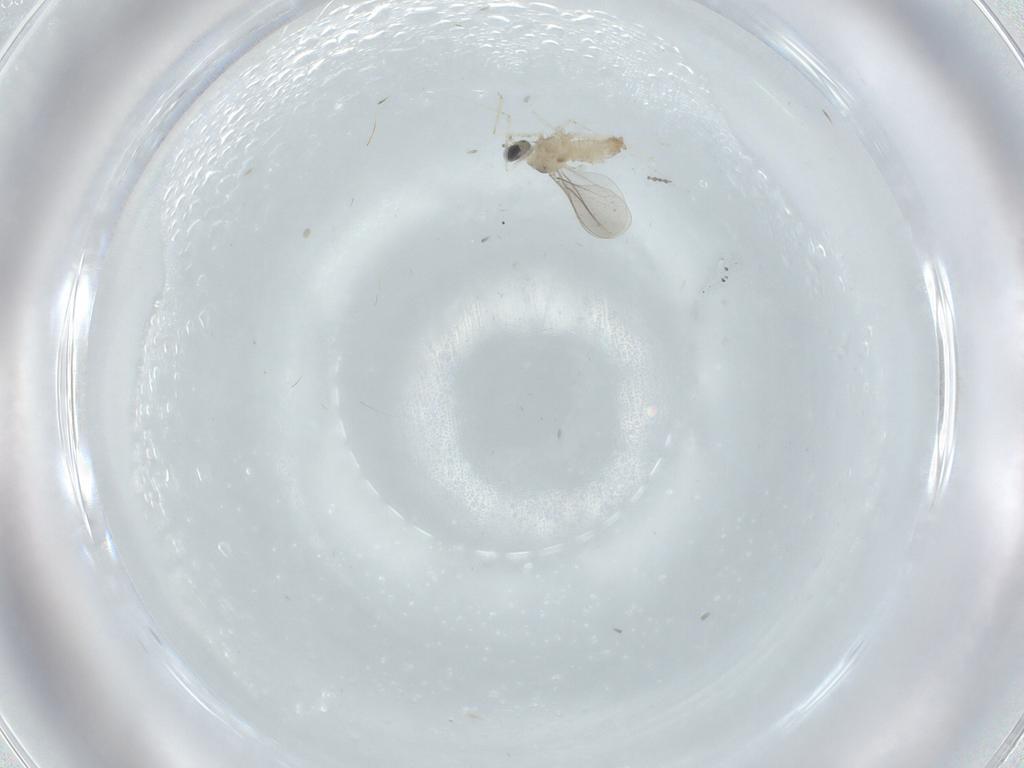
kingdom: Animalia
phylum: Arthropoda
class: Insecta
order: Diptera
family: Cecidomyiidae
